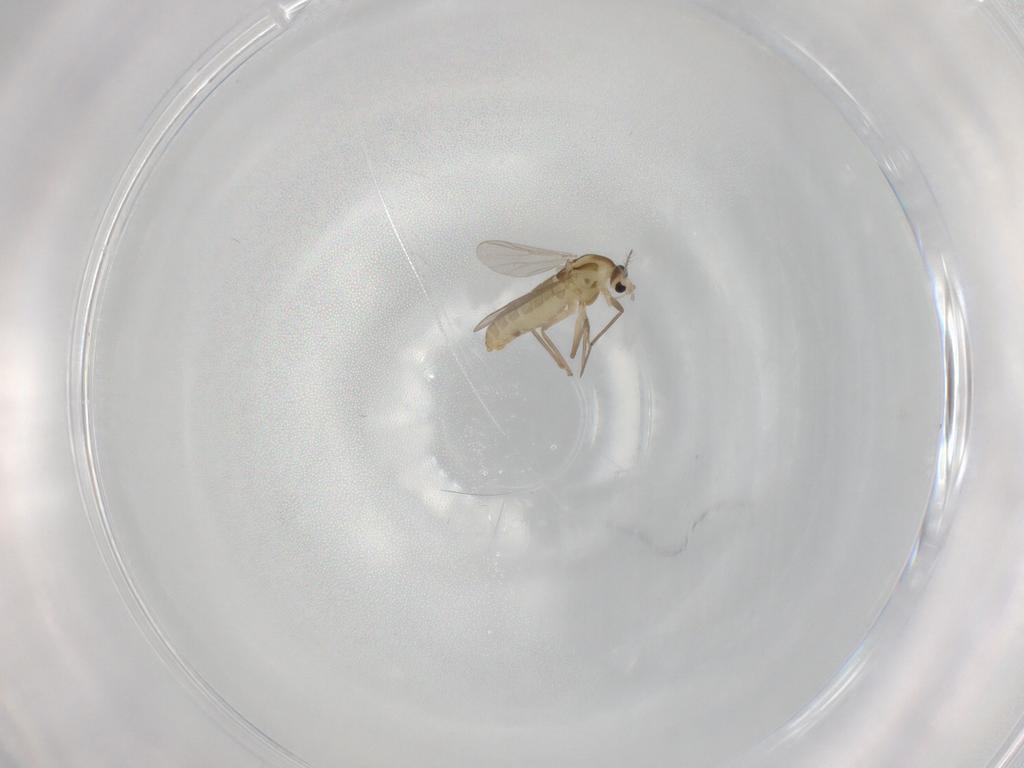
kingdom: Animalia
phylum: Arthropoda
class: Insecta
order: Diptera
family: Chironomidae
